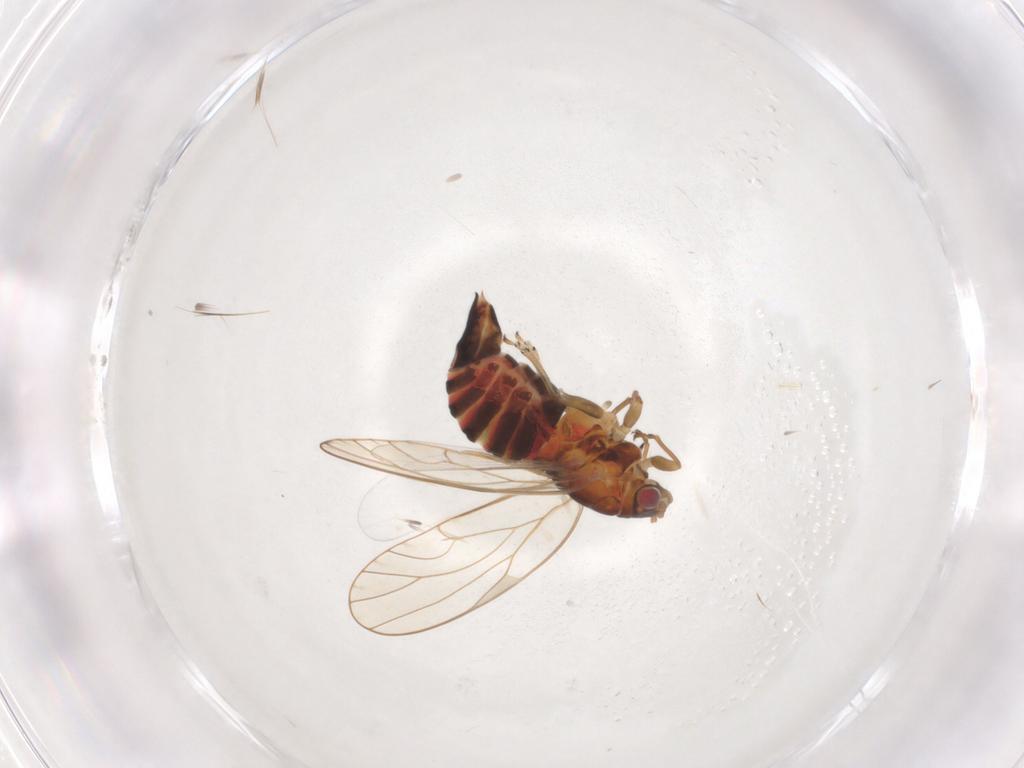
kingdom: Animalia
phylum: Arthropoda
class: Insecta
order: Hemiptera
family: Psyllidae
